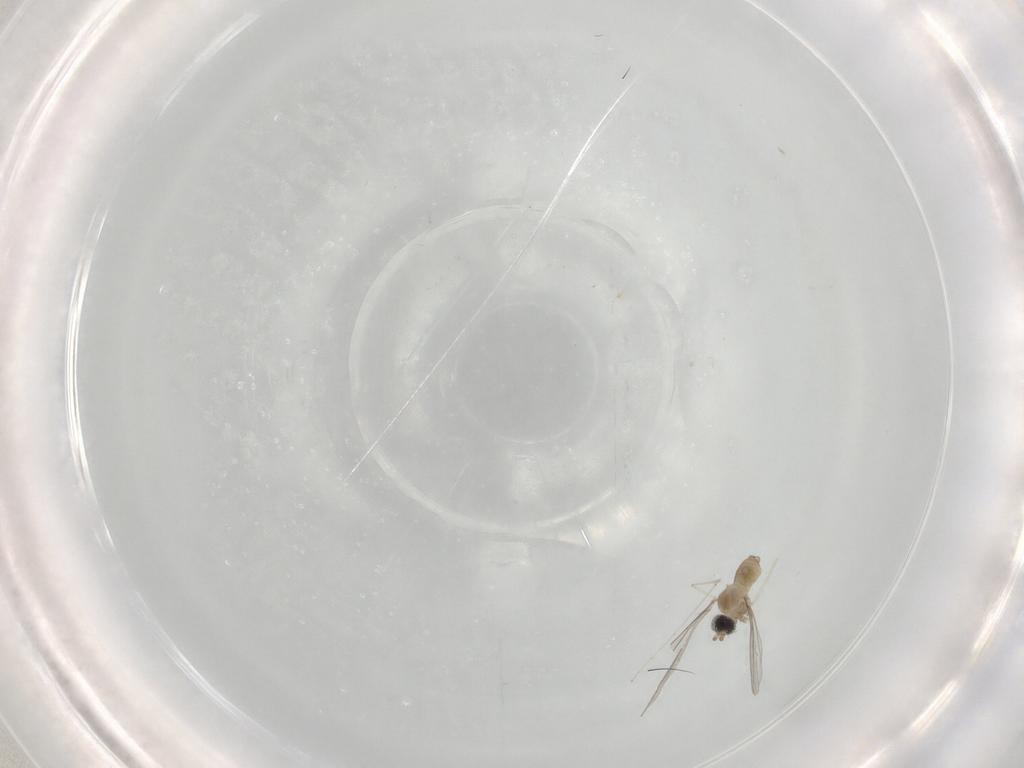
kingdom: Animalia
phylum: Arthropoda
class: Insecta
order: Diptera
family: Cecidomyiidae
